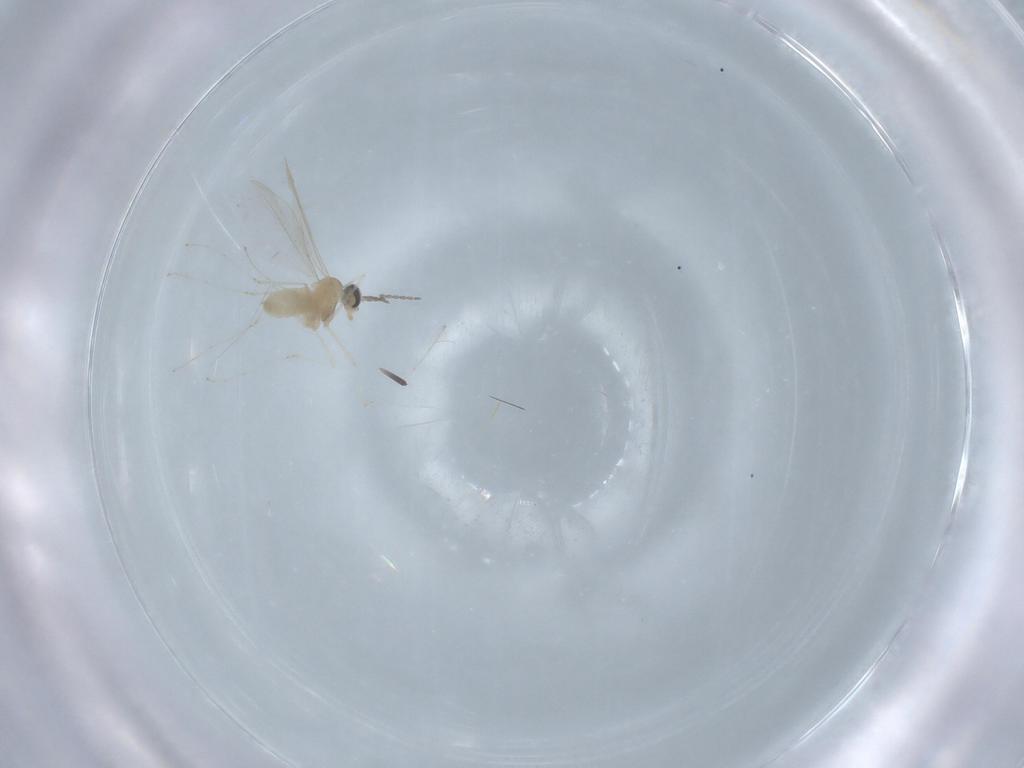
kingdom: Animalia
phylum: Arthropoda
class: Insecta
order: Diptera
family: Cecidomyiidae
